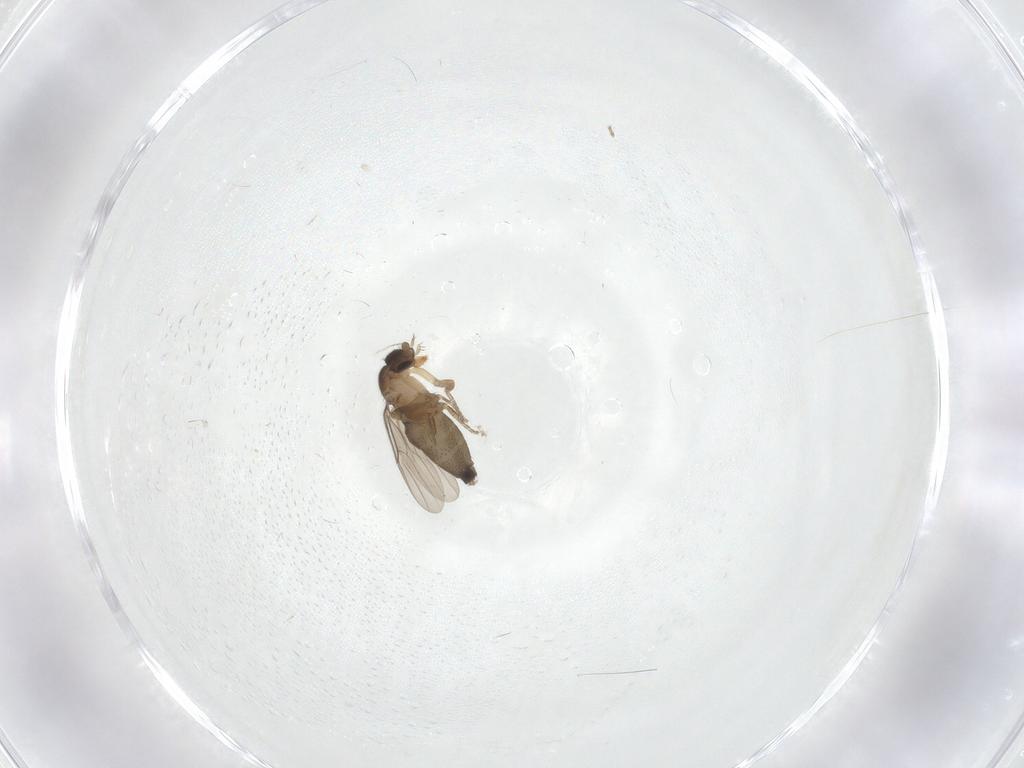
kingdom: Animalia
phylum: Arthropoda
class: Insecta
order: Diptera
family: Phoridae
